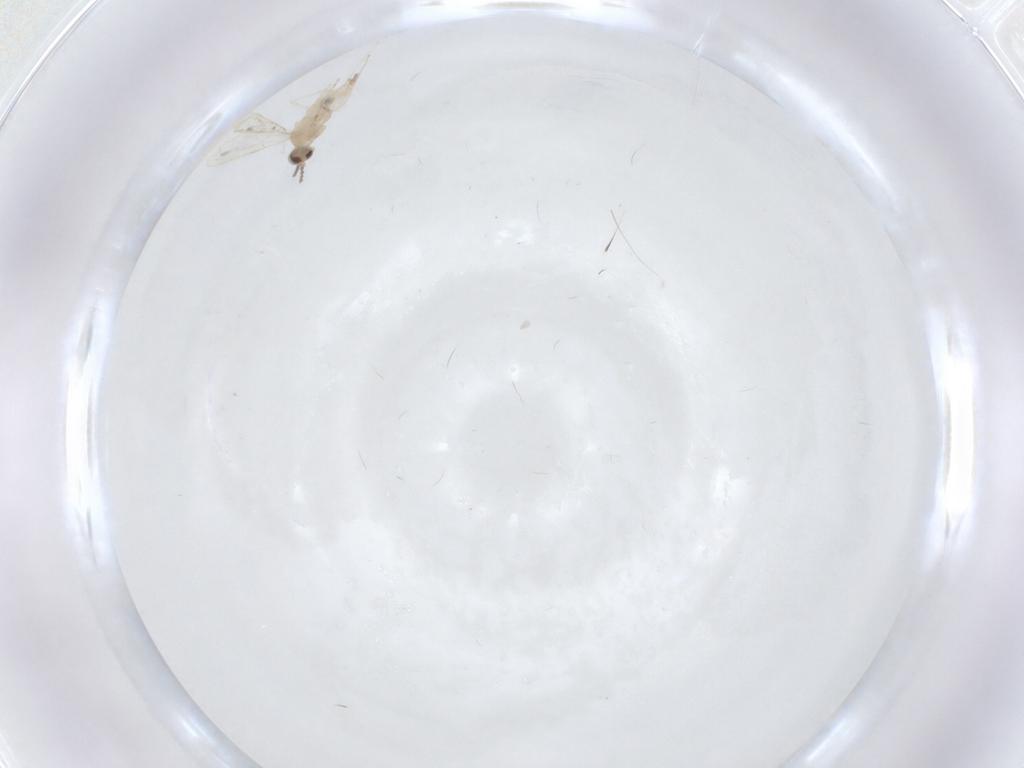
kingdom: Animalia
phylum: Arthropoda
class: Insecta
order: Diptera
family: Cecidomyiidae
